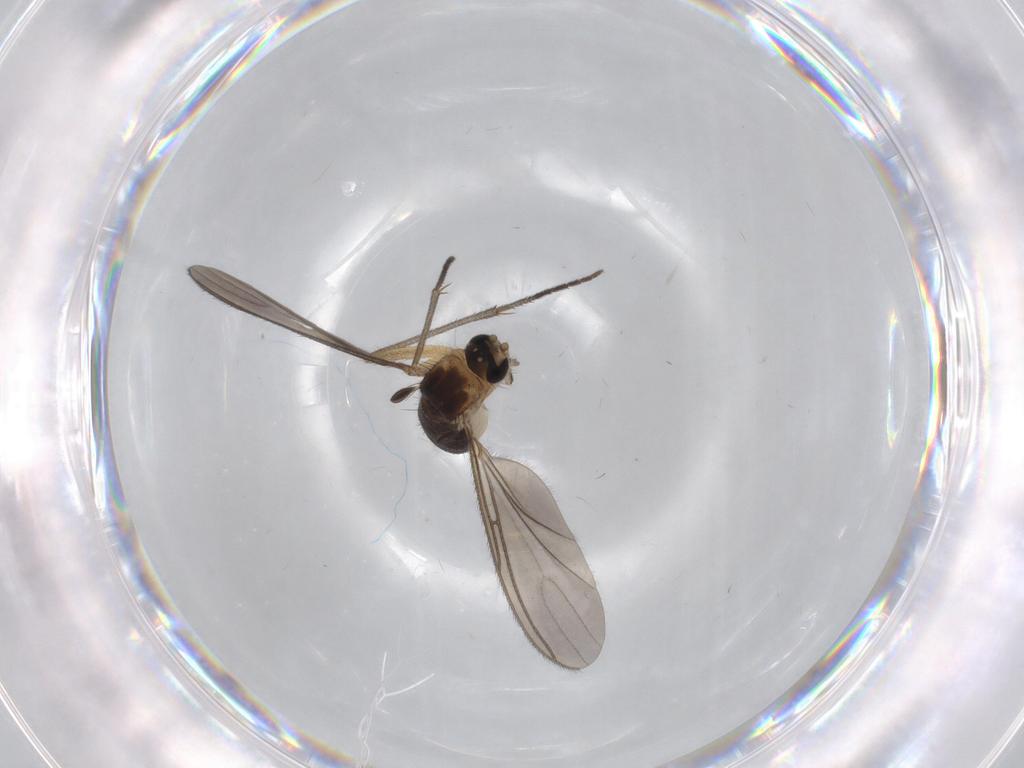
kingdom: Animalia
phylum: Arthropoda
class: Insecta
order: Diptera
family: Sciaridae
